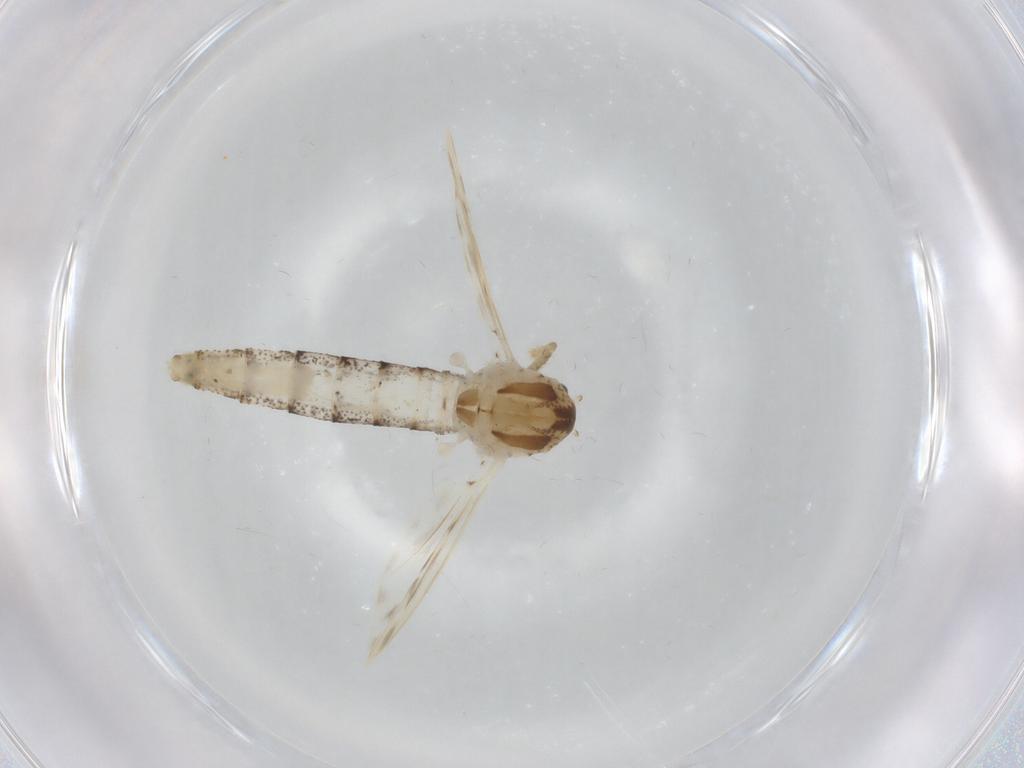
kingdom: Animalia
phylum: Arthropoda
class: Insecta
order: Diptera
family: Chaoboridae
